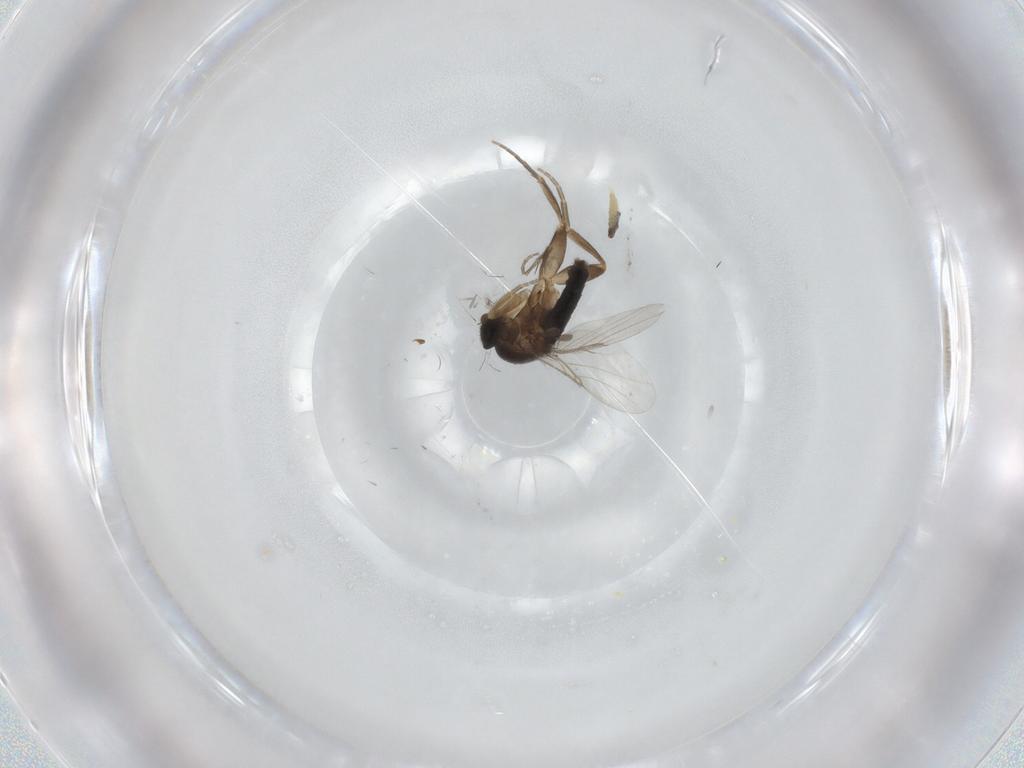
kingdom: Animalia
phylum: Arthropoda
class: Insecta
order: Diptera
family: Phoridae
